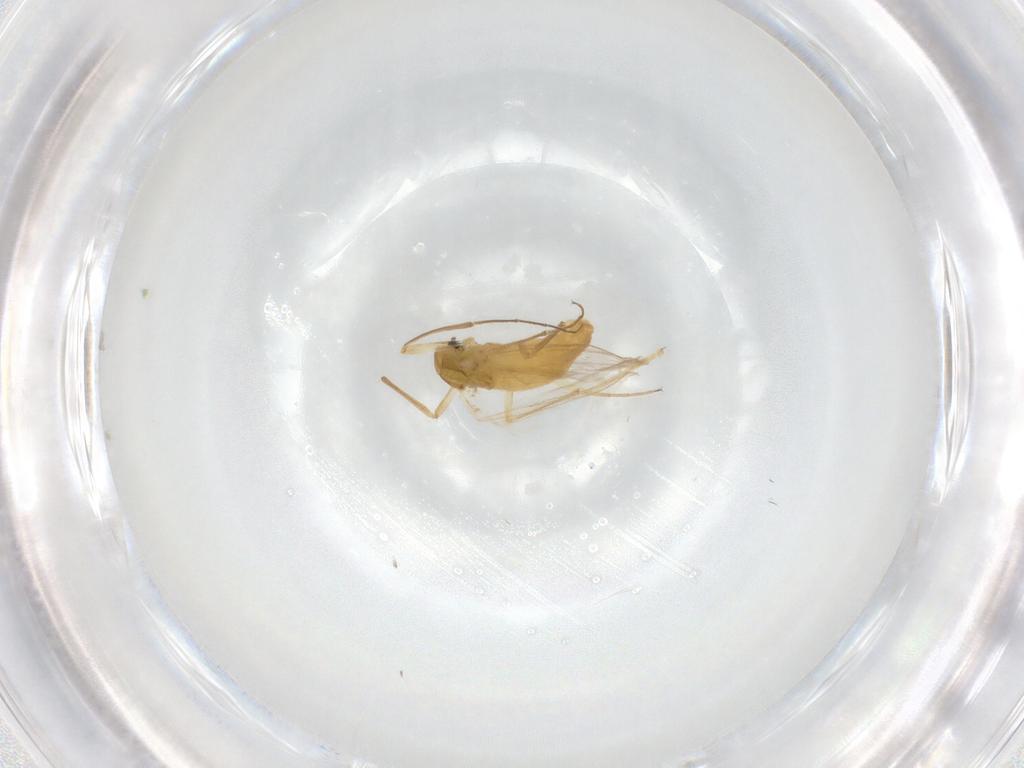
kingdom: Animalia
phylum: Arthropoda
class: Insecta
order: Diptera
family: Chironomidae
